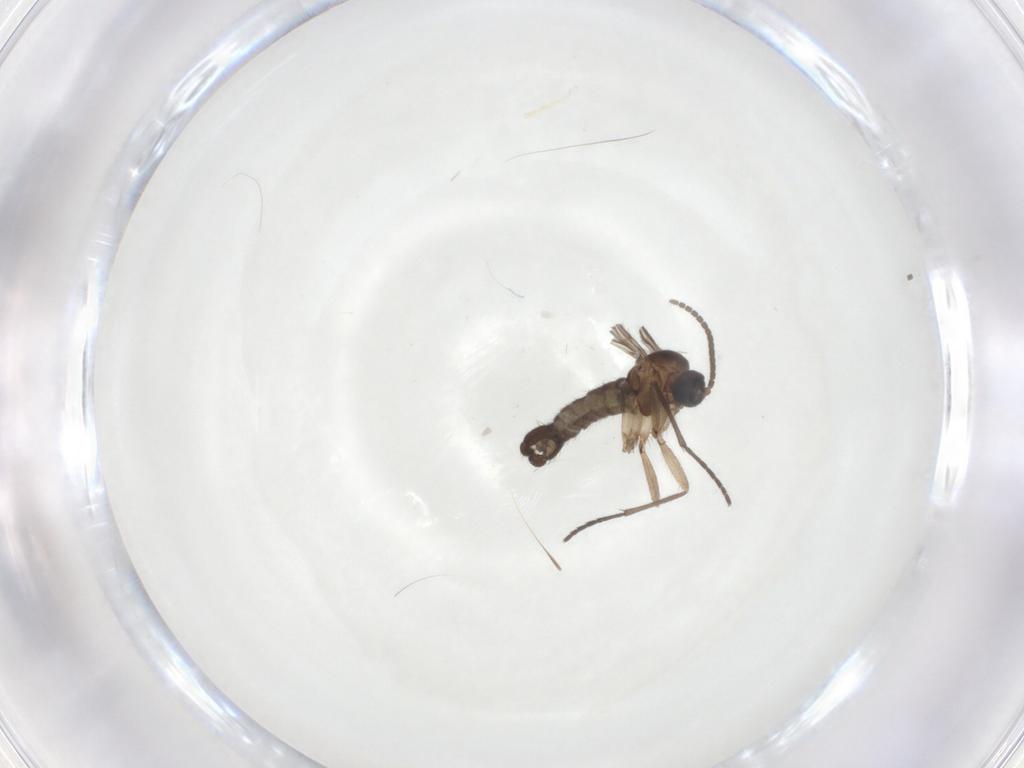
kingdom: Animalia
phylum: Arthropoda
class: Insecta
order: Diptera
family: Sciaridae
